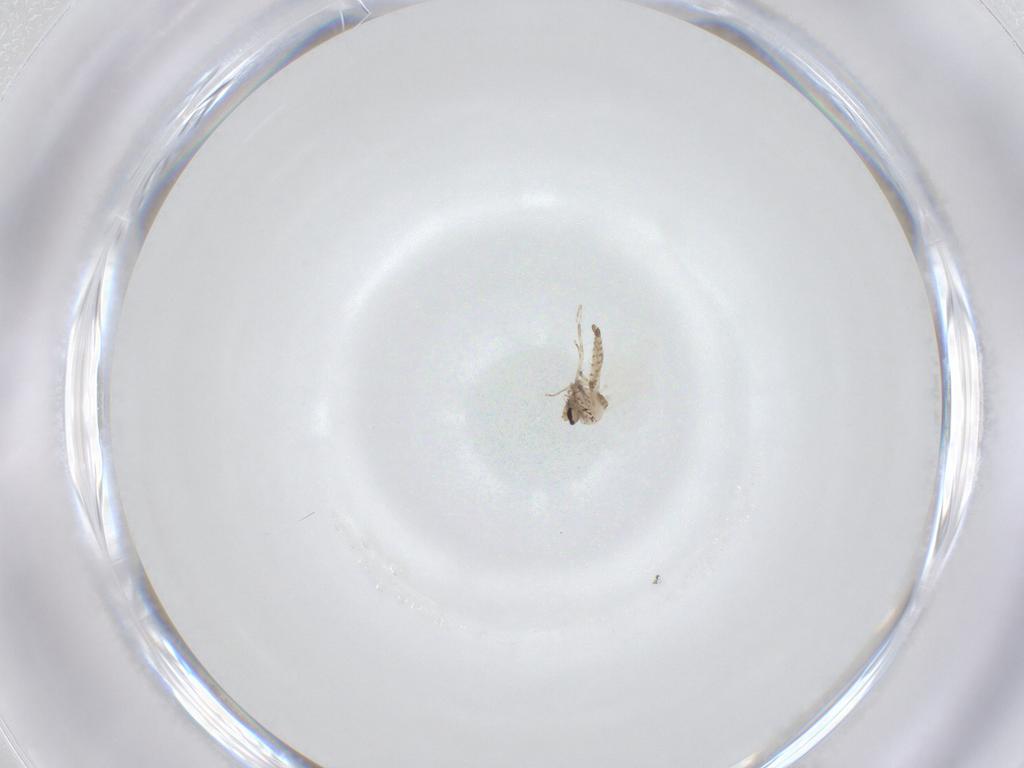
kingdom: Animalia
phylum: Arthropoda
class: Insecta
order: Diptera
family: Ceratopogonidae
